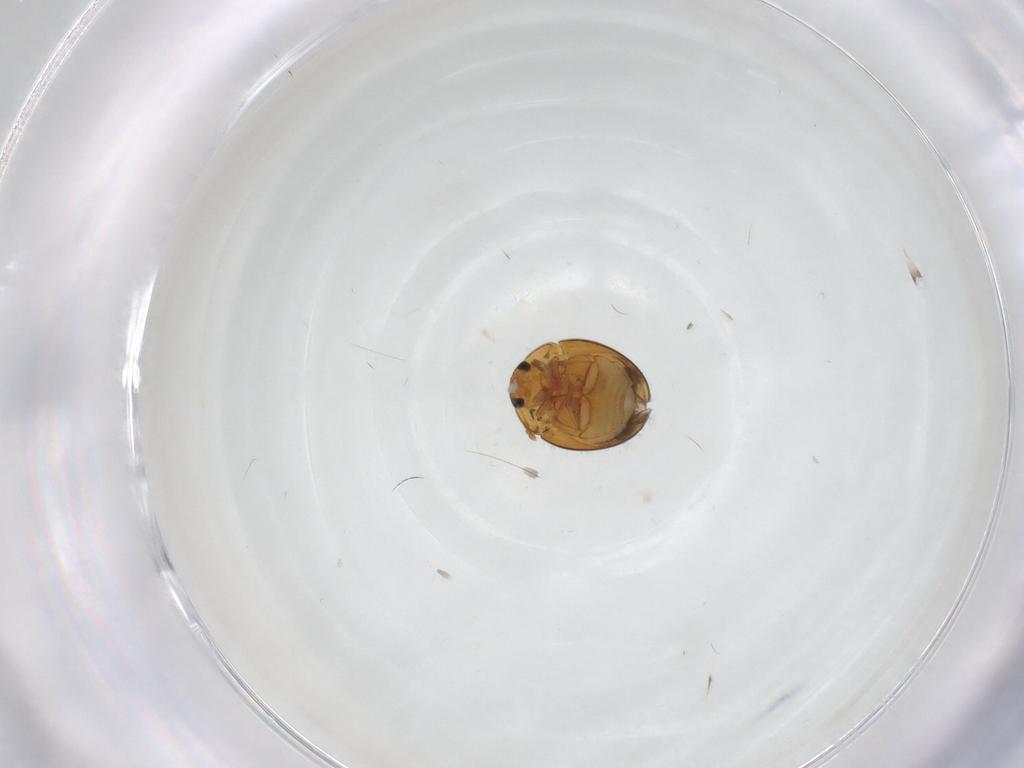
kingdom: Animalia
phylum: Arthropoda
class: Insecta
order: Coleoptera
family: Phalacridae
